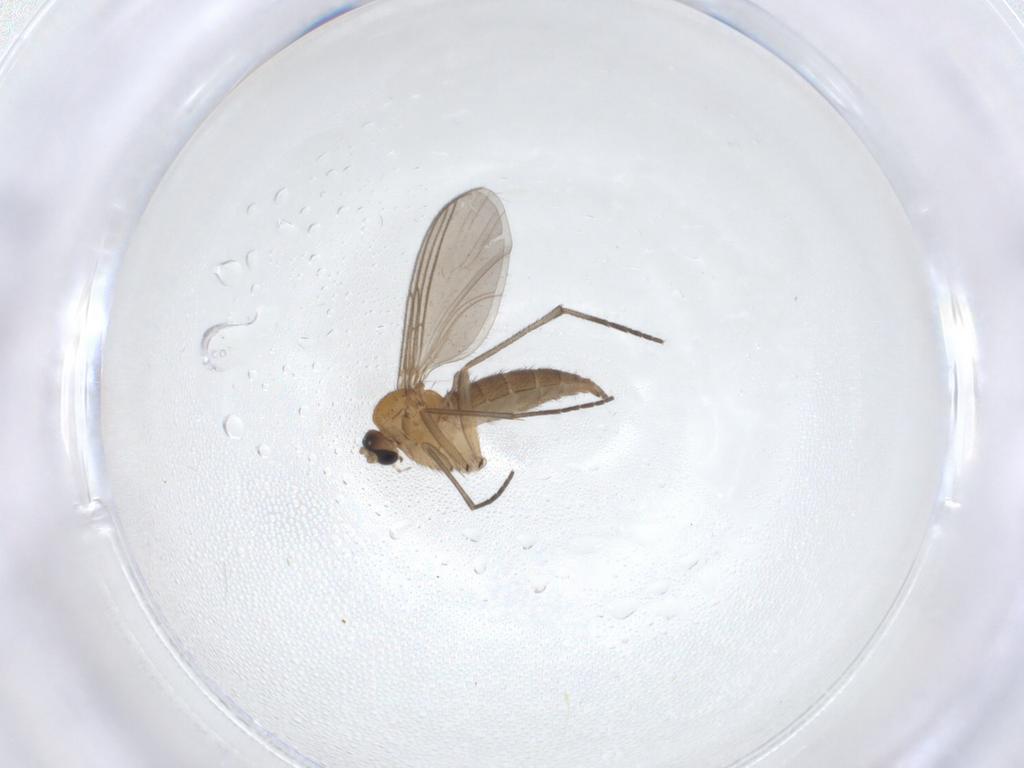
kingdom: Animalia
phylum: Arthropoda
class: Insecta
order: Diptera
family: Sciaridae
